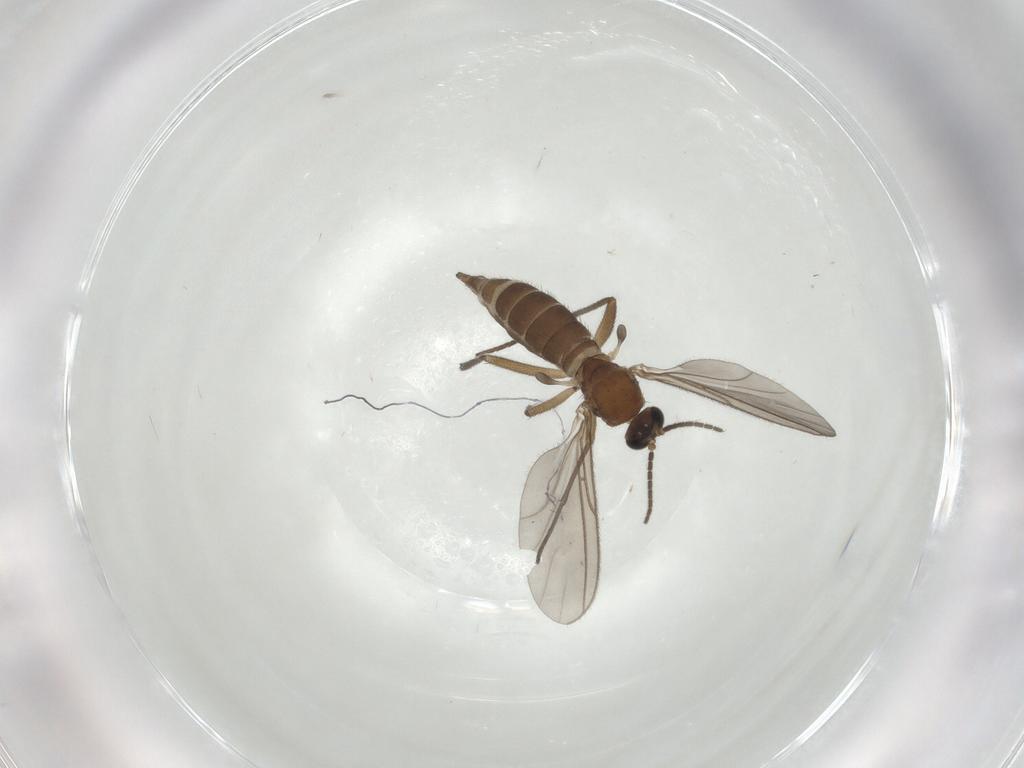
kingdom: Animalia
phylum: Arthropoda
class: Insecta
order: Diptera
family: Sciaridae
